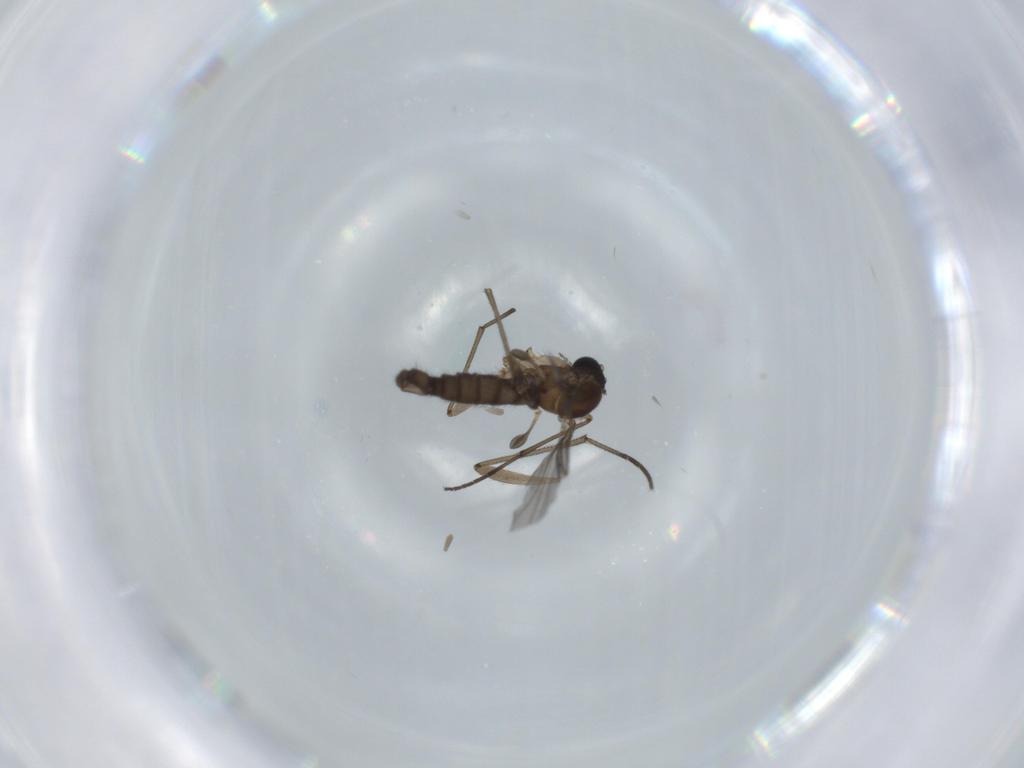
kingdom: Animalia
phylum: Arthropoda
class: Insecta
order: Diptera
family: Sciaridae
